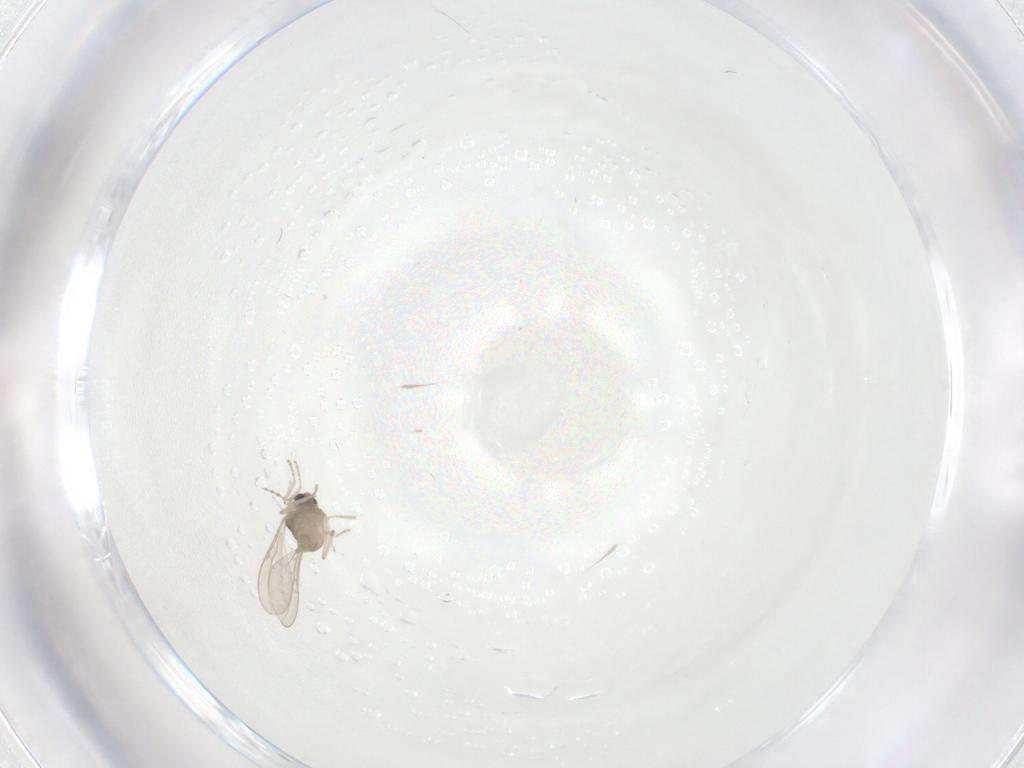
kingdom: Animalia
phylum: Arthropoda
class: Insecta
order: Diptera
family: Cecidomyiidae
